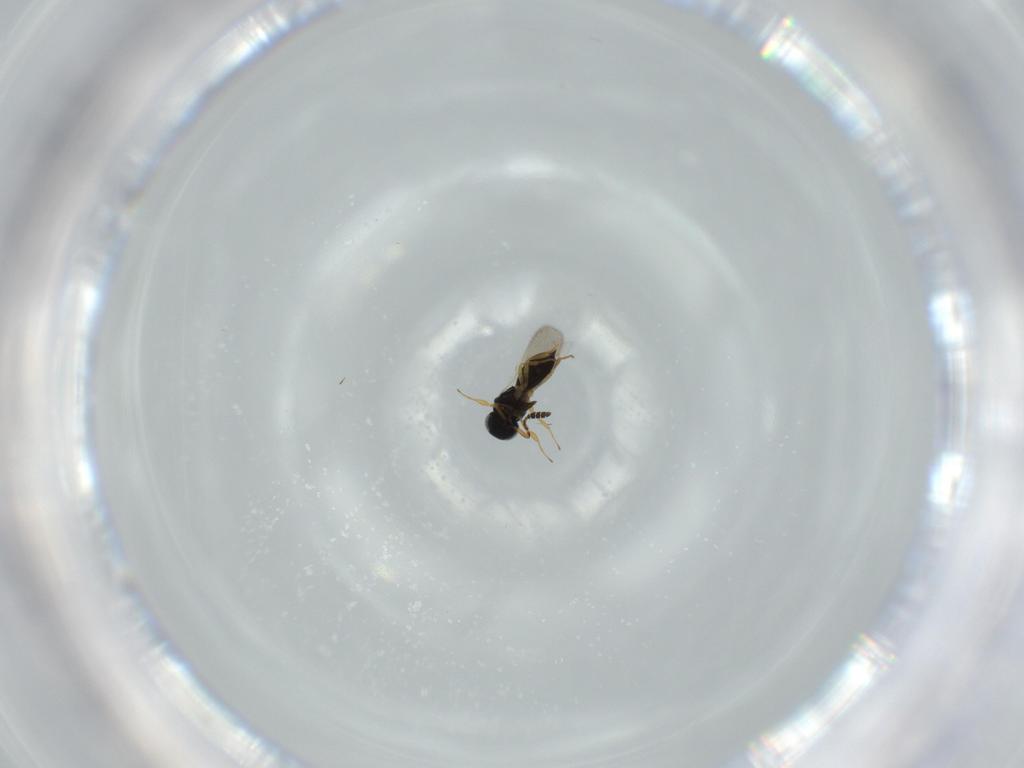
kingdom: Animalia
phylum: Arthropoda
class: Insecta
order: Hymenoptera
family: Scelionidae
